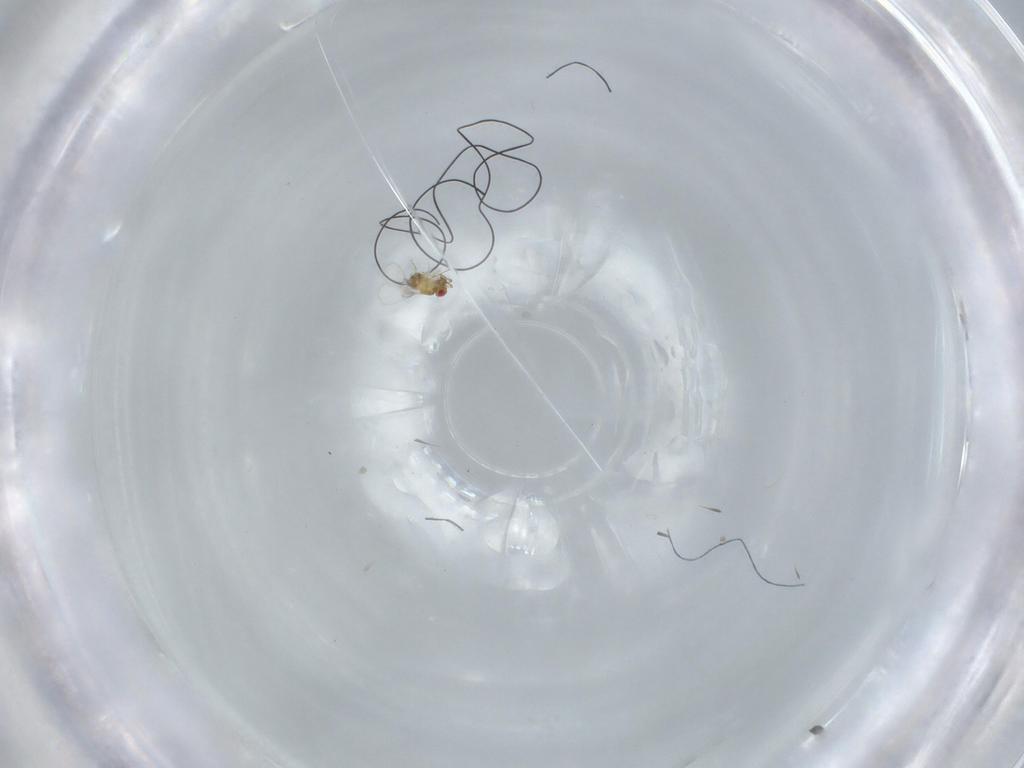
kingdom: Animalia
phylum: Arthropoda
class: Insecta
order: Hymenoptera
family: Trichogrammatidae
